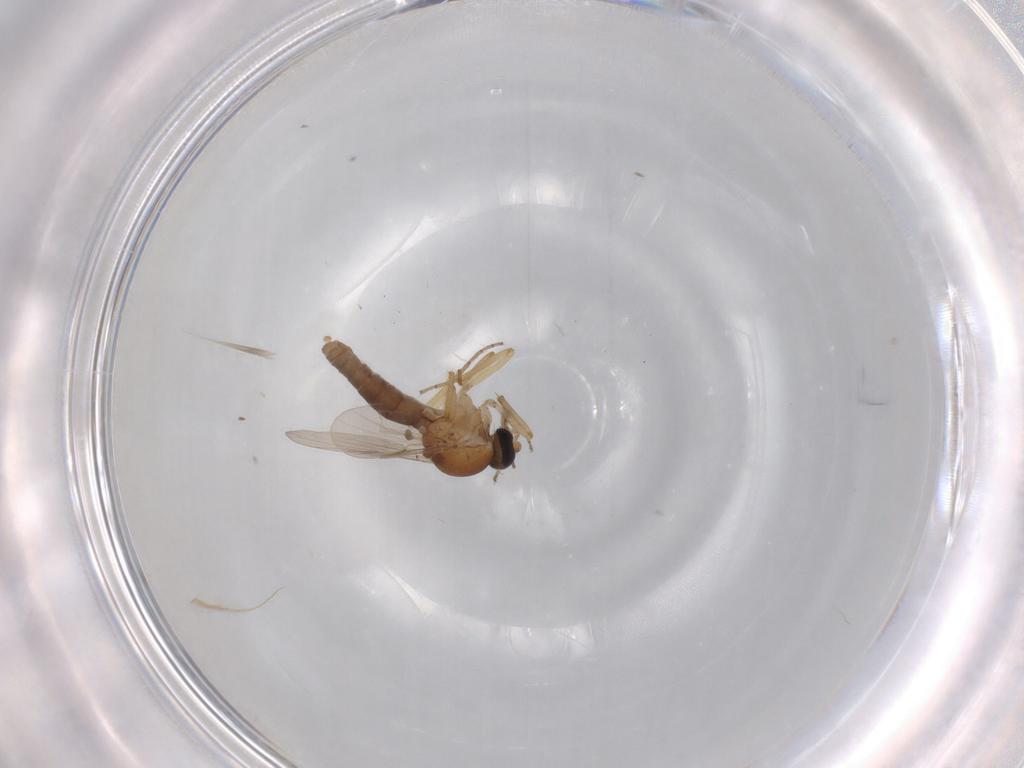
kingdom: Animalia
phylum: Arthropoda
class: Insecta
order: Diptera
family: Ceratopogonidae
